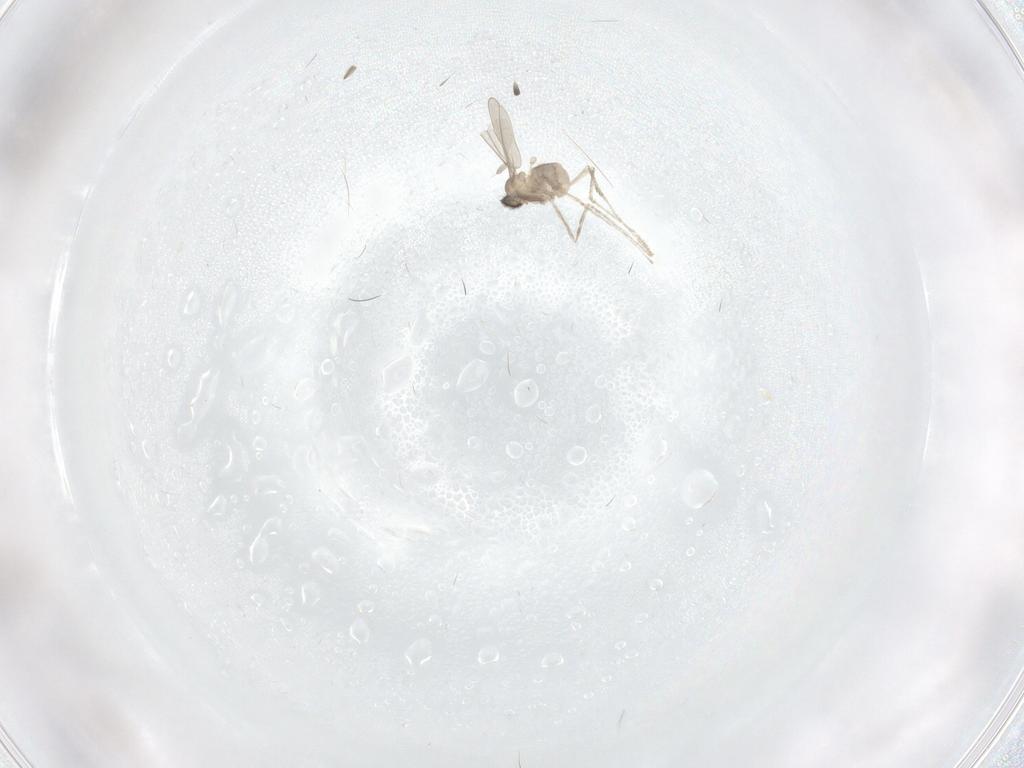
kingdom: Animalia
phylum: Arthropoda
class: Insecta
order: Diptera
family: Cecidomyiidae
